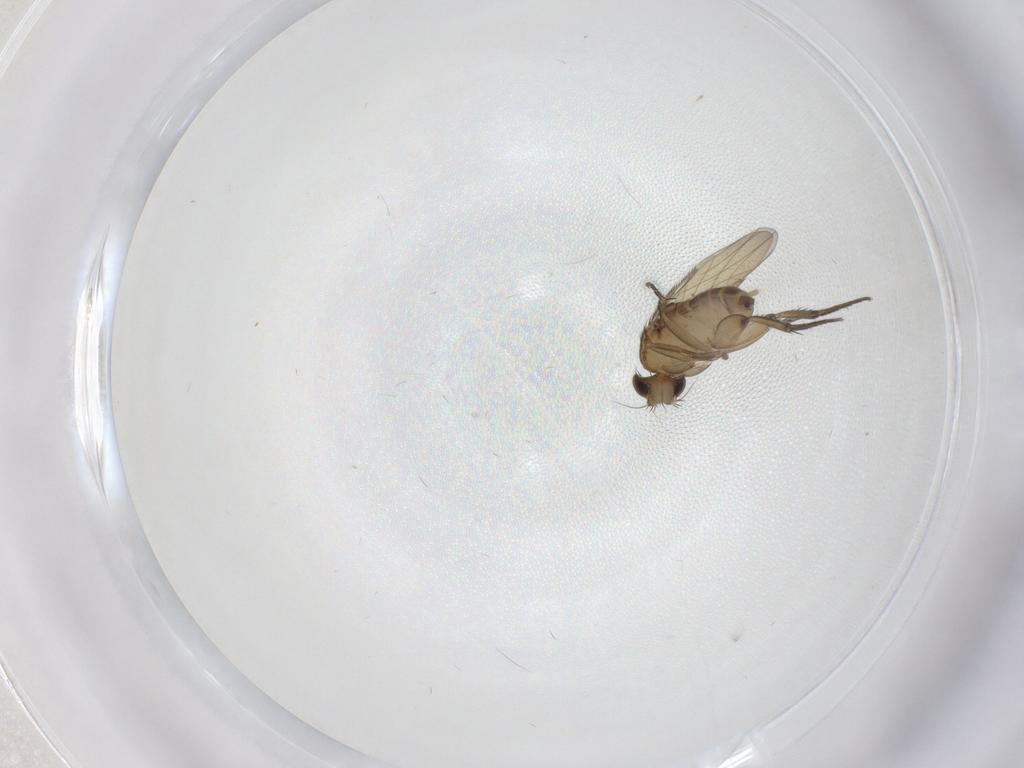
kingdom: Animalia
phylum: Arthropoda
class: Insecta
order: Diptera
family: Phoridae
